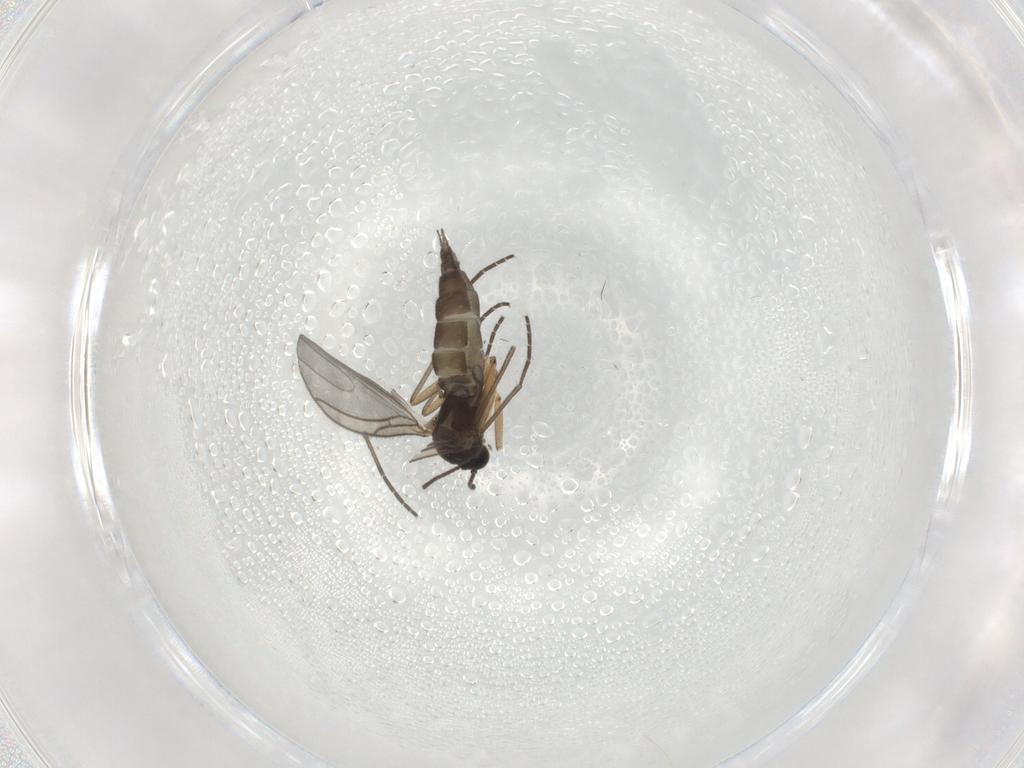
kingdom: Animalia
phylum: Arthropoda
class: Insecta
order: Diptera
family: Sciaridae
